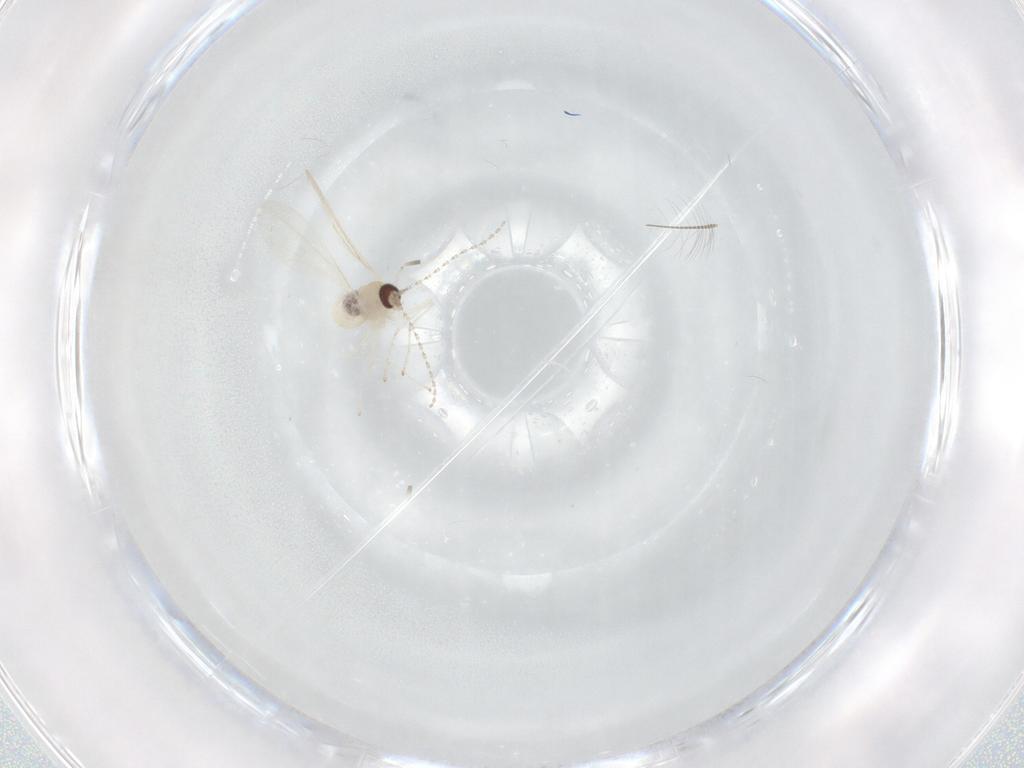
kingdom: Animalia
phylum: Arthropoda
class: Insecta
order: Diptera
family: Chironomidae
